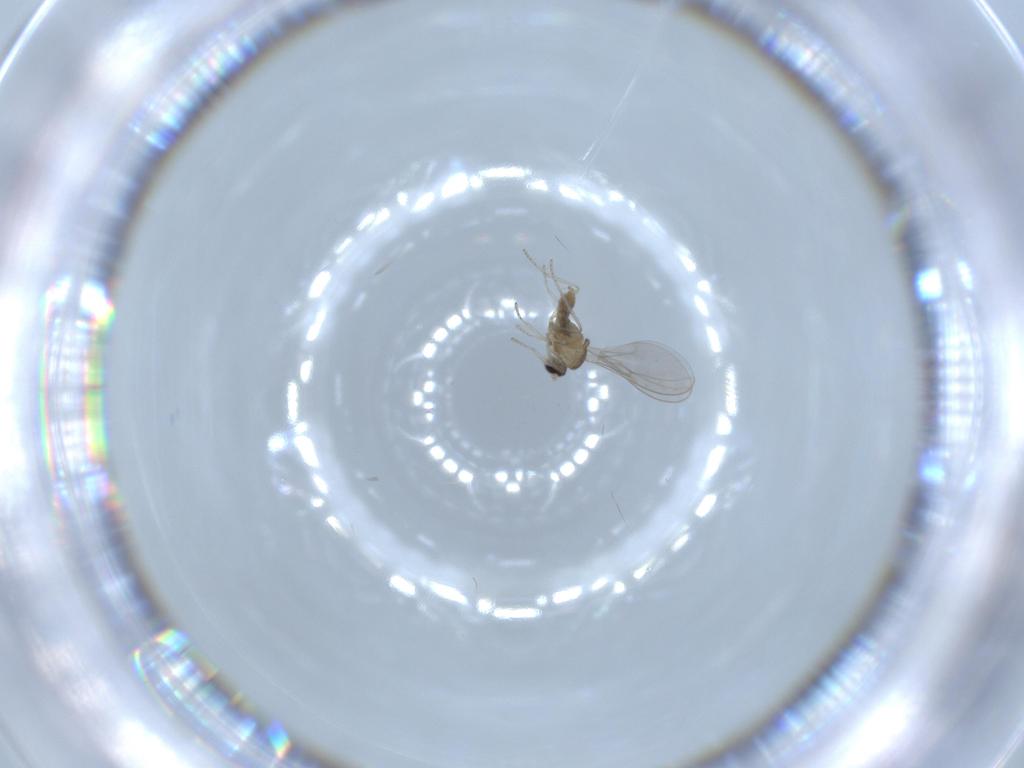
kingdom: Animalia
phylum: Arthropoda
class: Insecta
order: Diptera
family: Sciaridae
